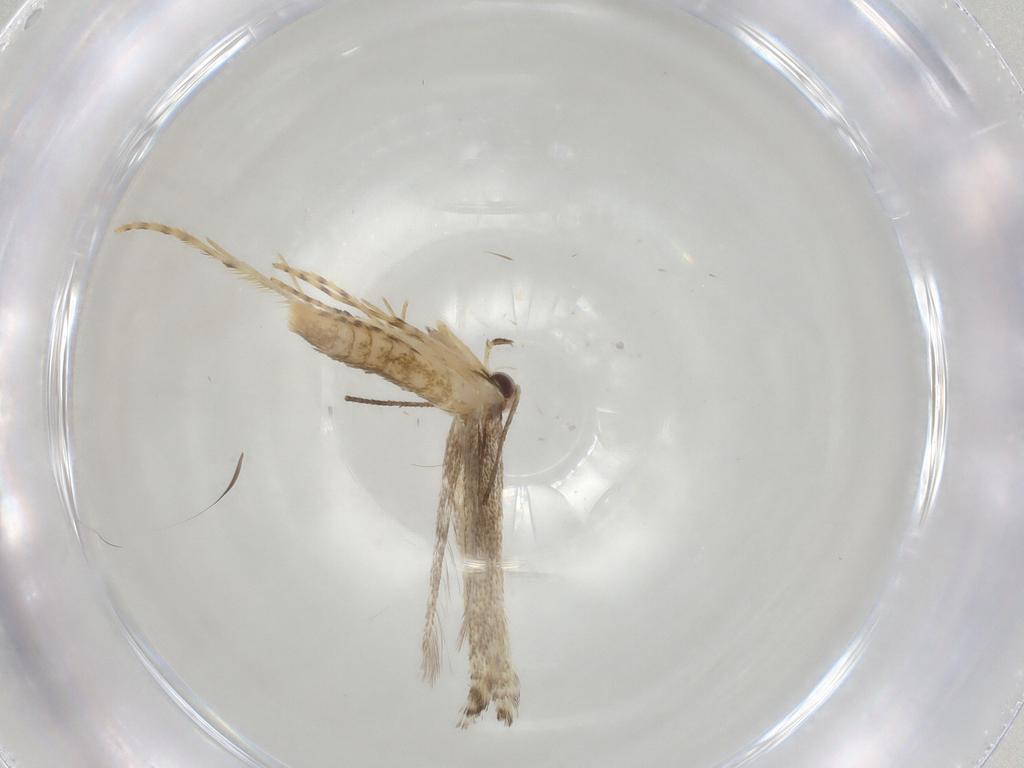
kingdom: Animalia
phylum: Arthropoda
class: Insecta
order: Lepidoptera
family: Gracillariidae
